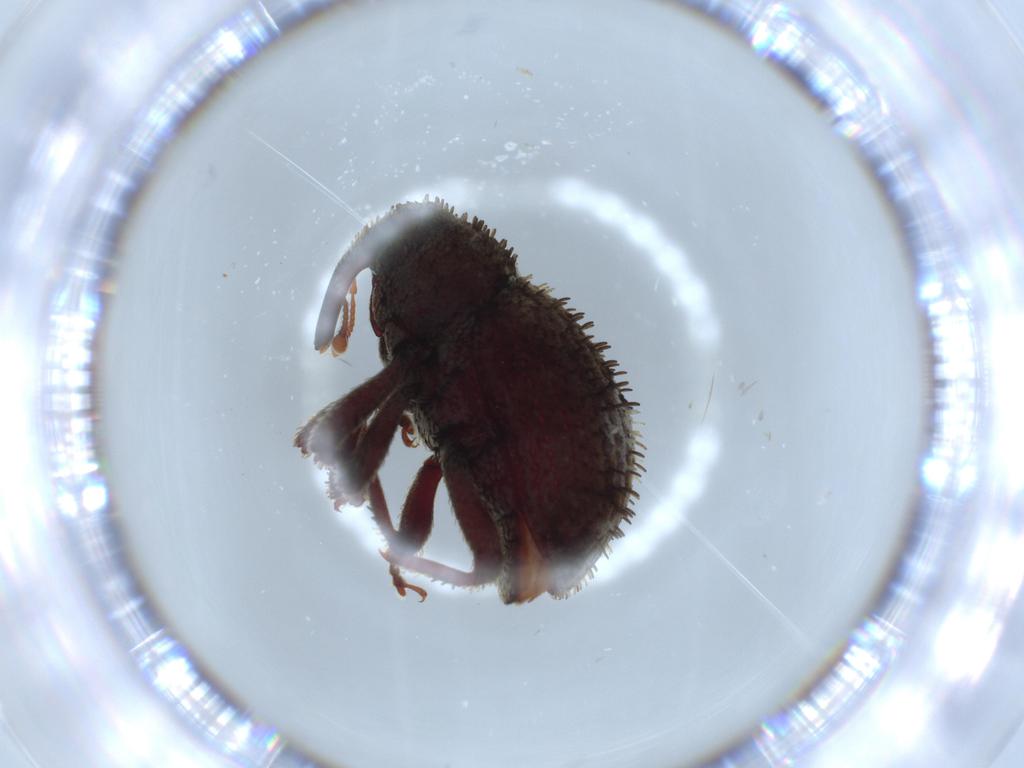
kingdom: Animalia
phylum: Arthropoda
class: Insecta
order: Coleoptera
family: Curculionidae
